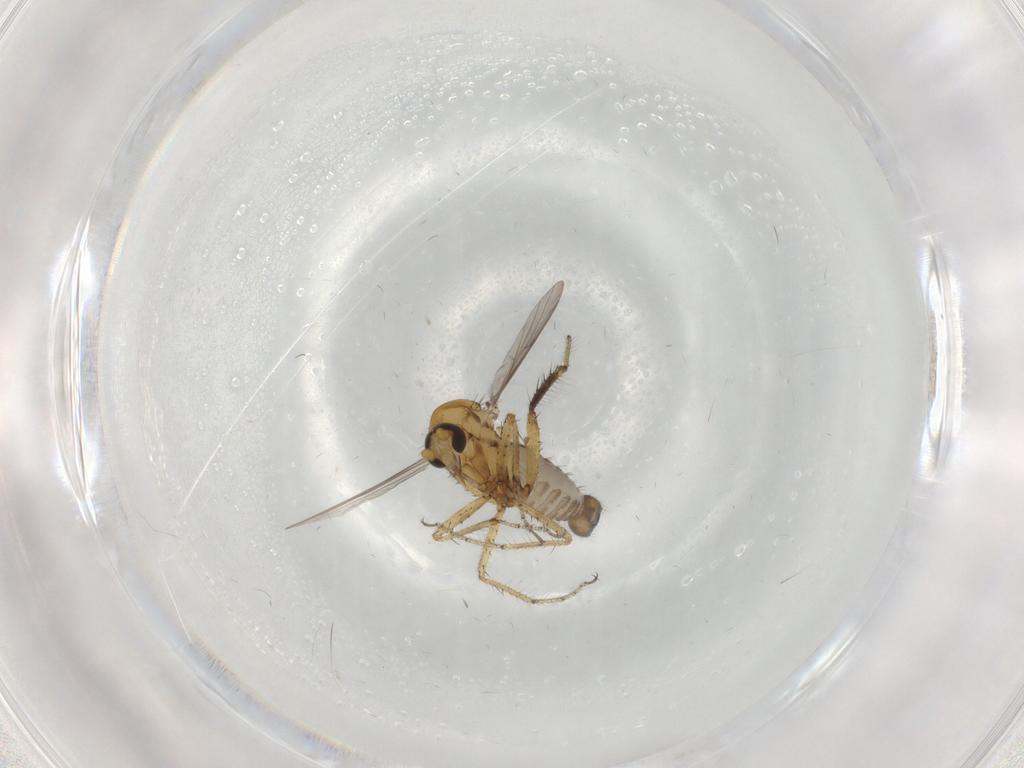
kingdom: Animalia
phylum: Arthropoda
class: Insecta
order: Diptera
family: Ceratopogonidae
